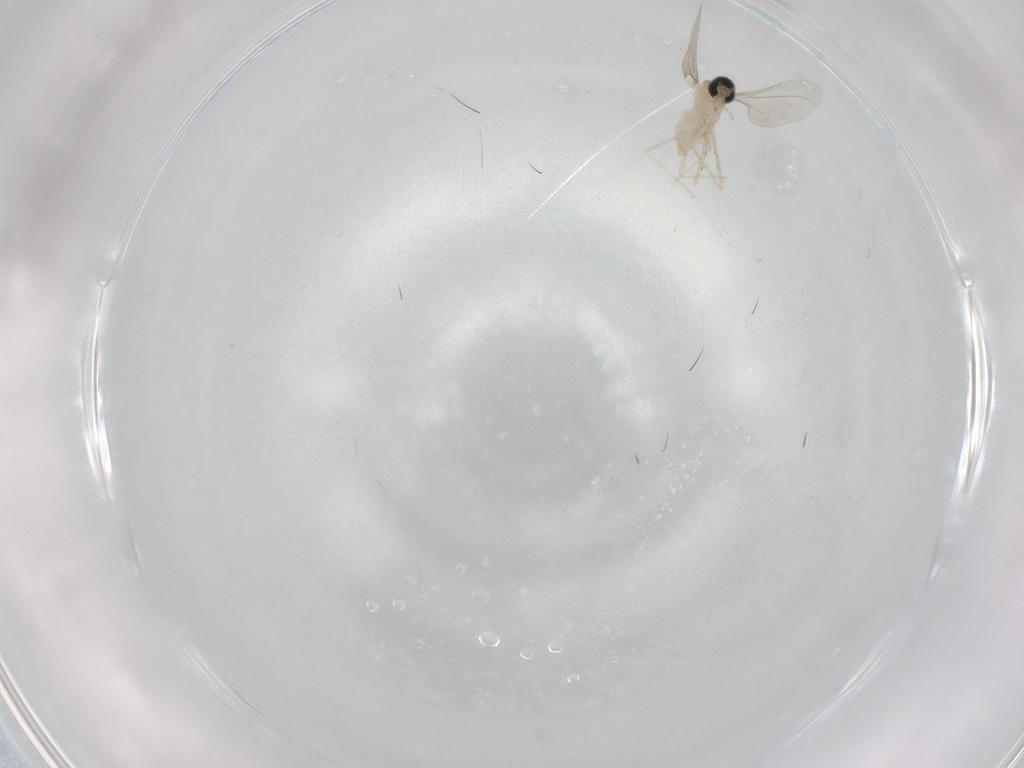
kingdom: Animalia
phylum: Arthropoda
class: Insecta
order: Diptera
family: Cecidomyiidae
